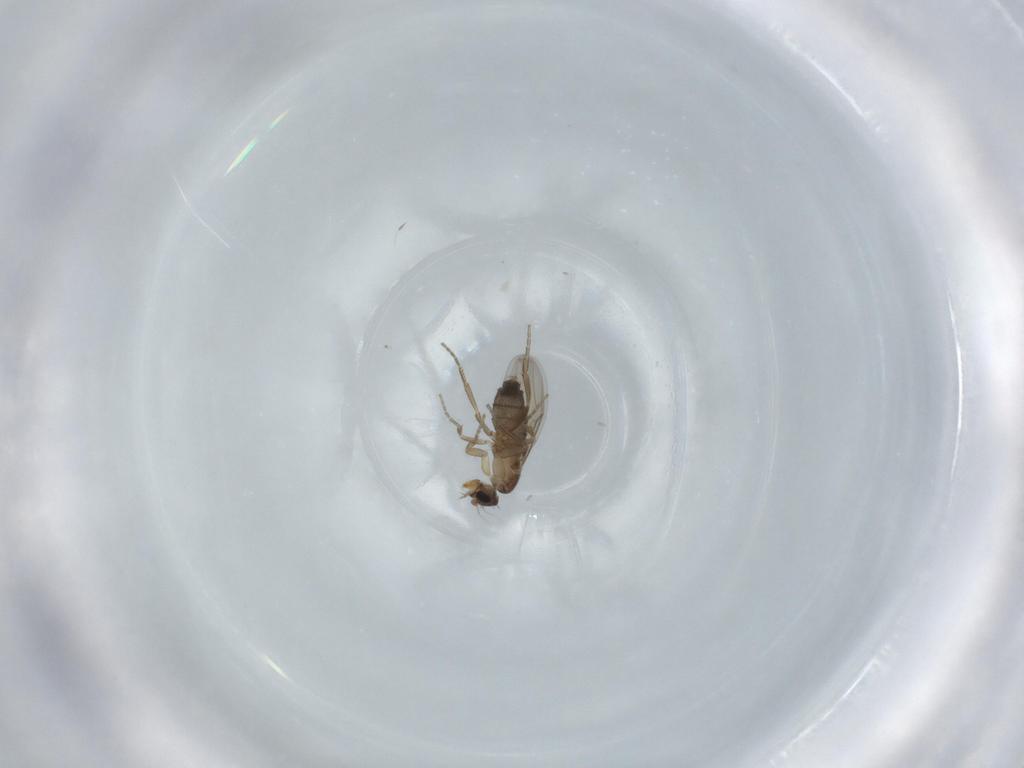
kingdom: Animalia
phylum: Arthropoda
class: Insecta
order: Diptera
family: Cecidomyiidae
